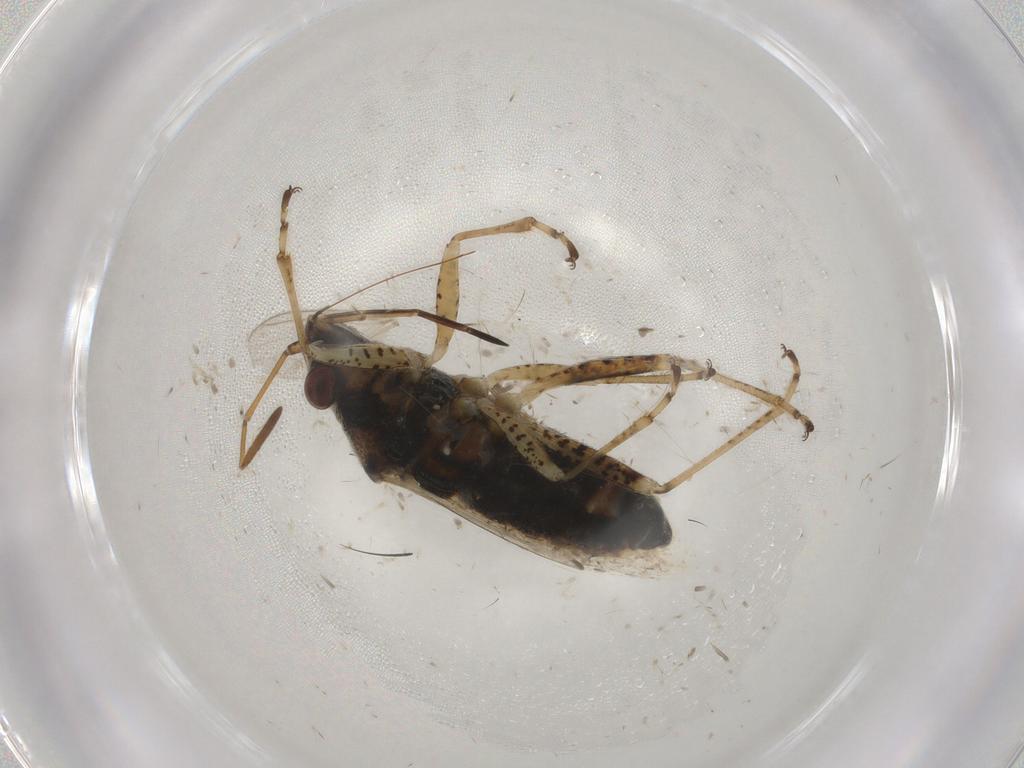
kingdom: Animalia
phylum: Arthropoda
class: Insecta
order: Hemiptera
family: Lygaeidae
